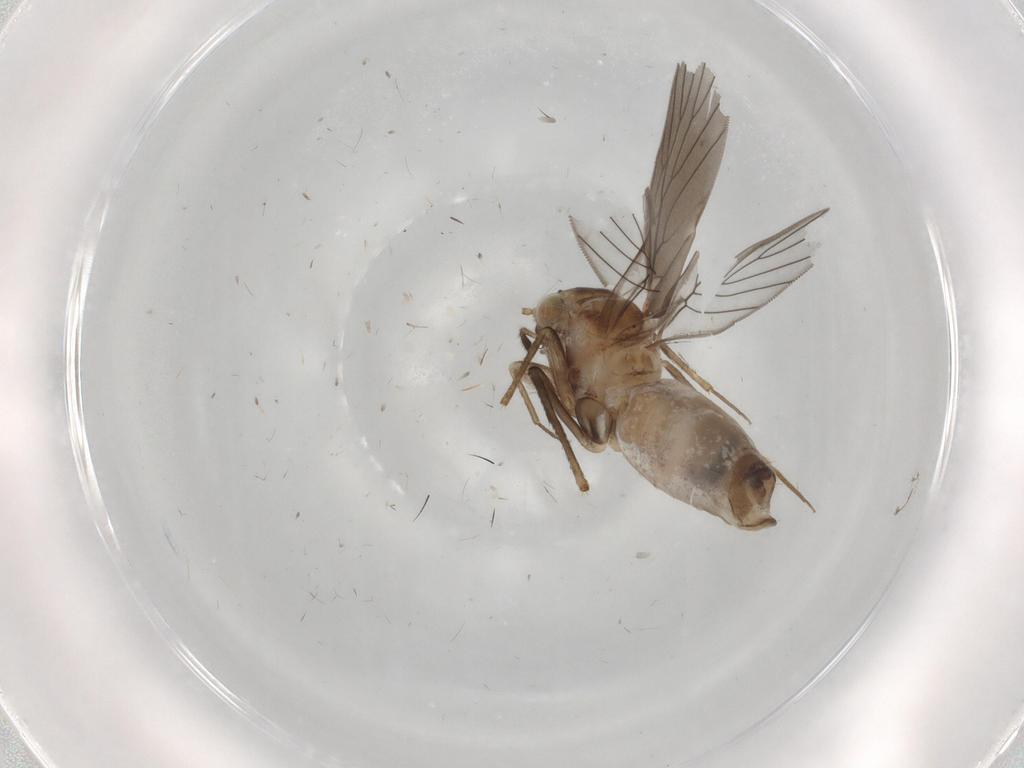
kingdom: Animalia
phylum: Arthropoda
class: Insecta
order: Psocodea
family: Lepidopsocidae
